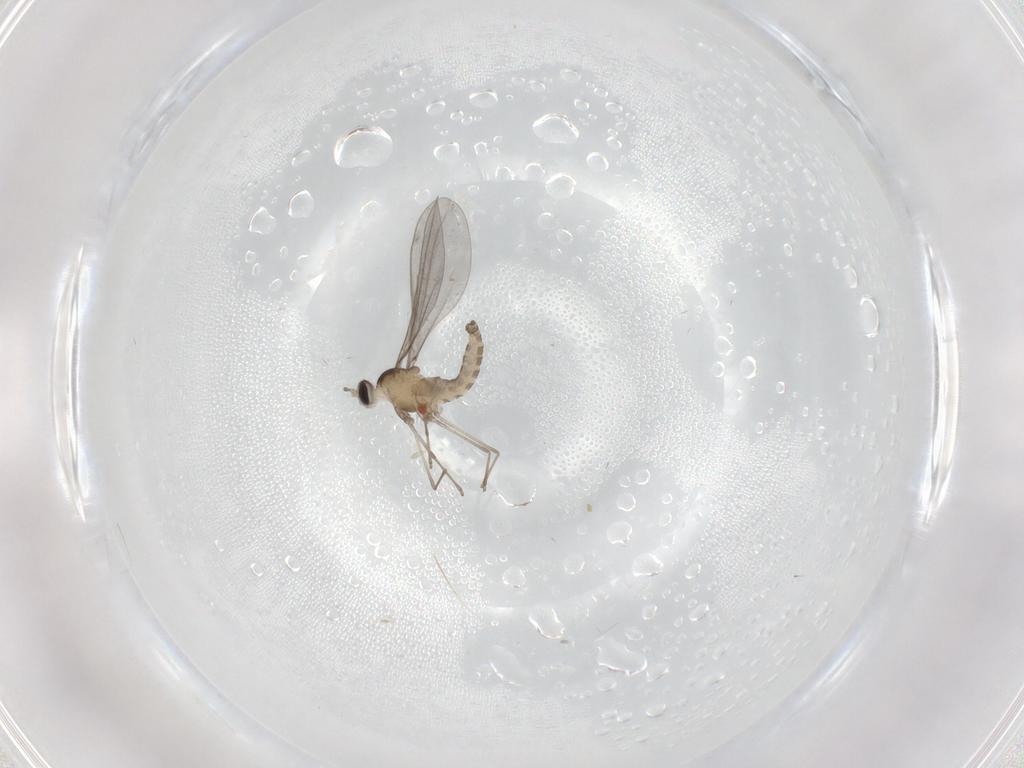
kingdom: Animalia
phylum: Arthropoda
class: Insecta
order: Diptera
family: Cecidomyiidae
